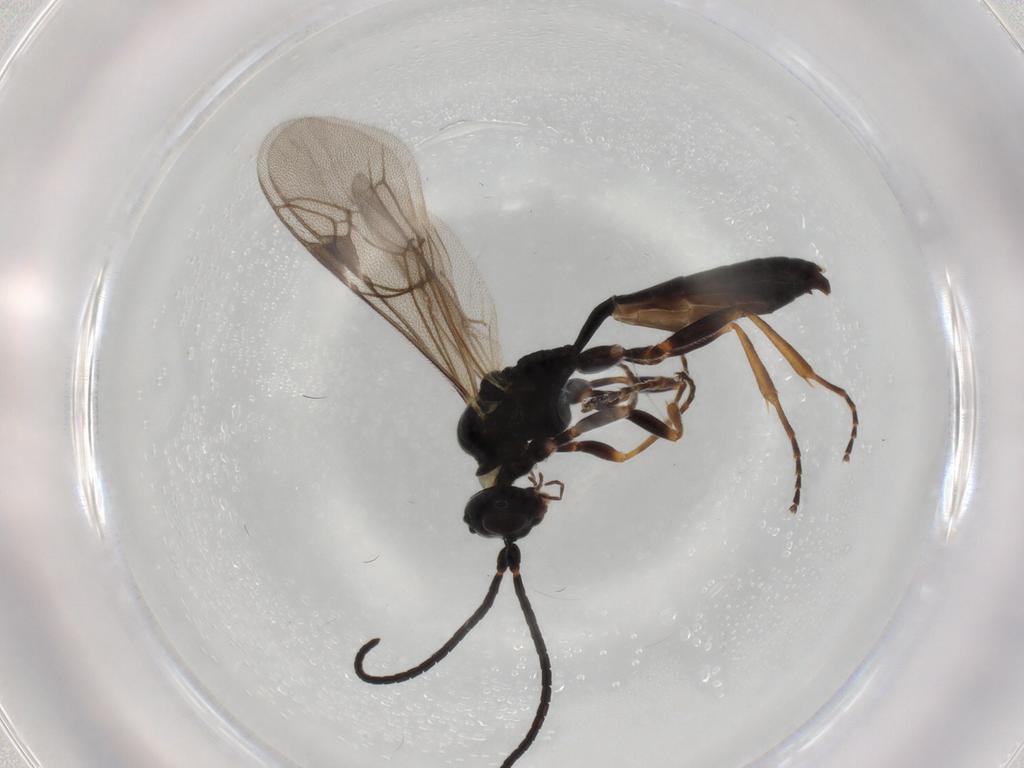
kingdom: Animalia
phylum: Arthropoda
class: Insecta
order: Hymenoptera
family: Ichneumonidae
